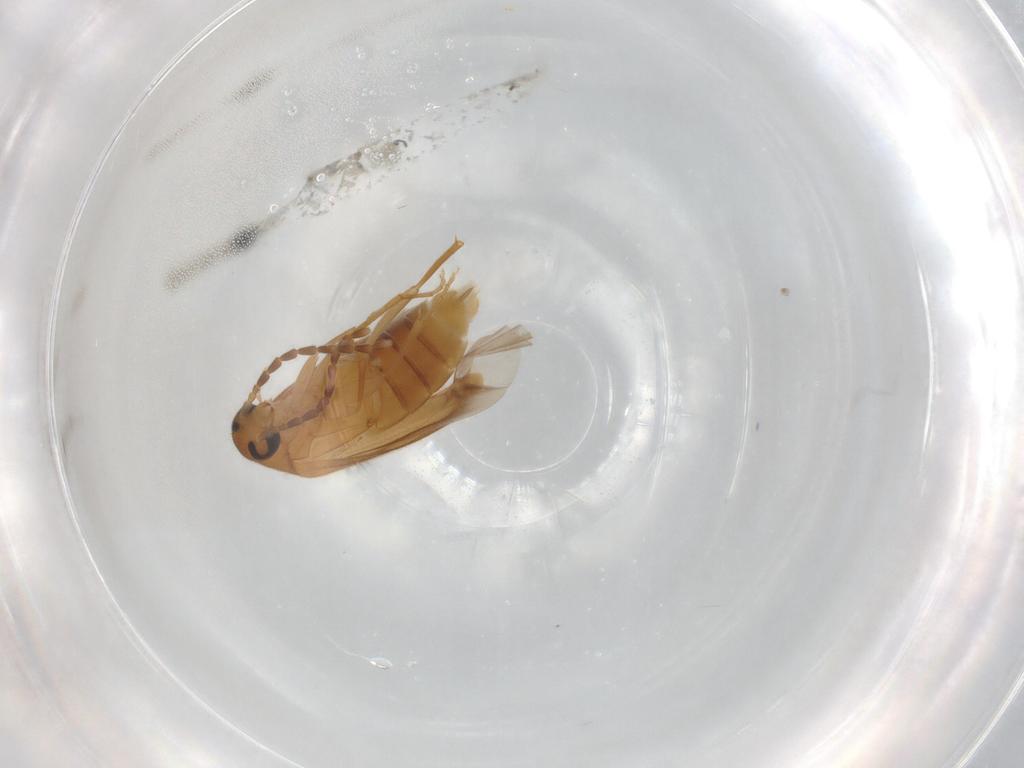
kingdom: Animalia
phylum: Arthropoda
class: Insecta
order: Coleoptera
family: Scraptiidae
